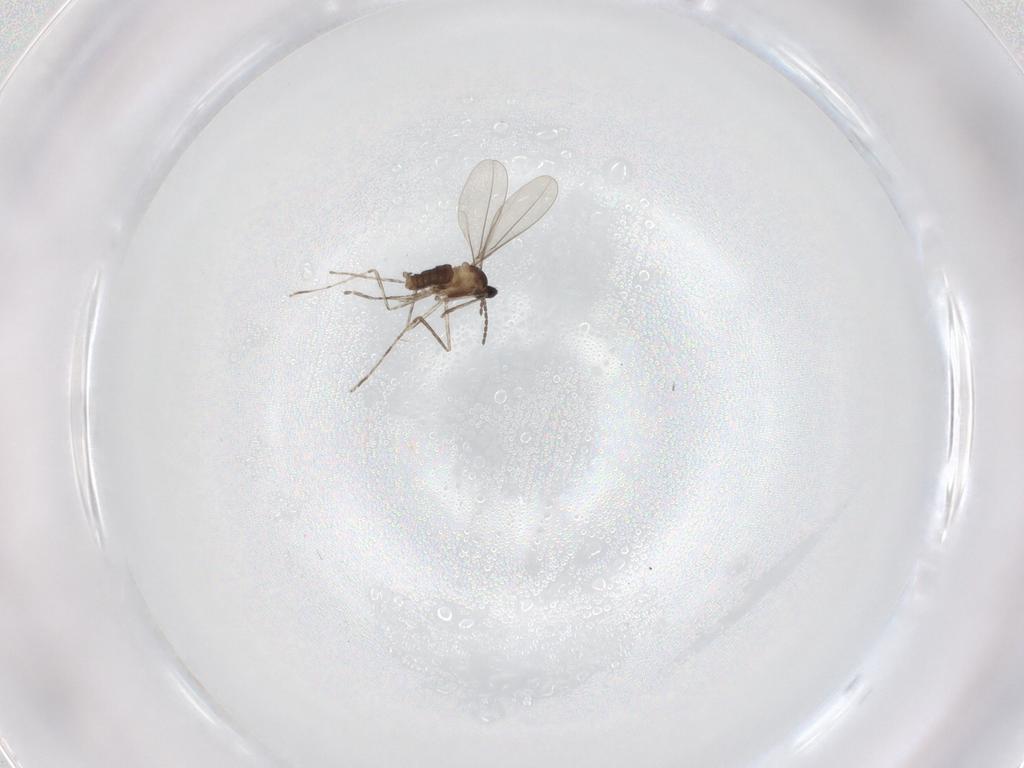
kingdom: Animalia
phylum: Arthropoda
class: Insecta
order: Diptera
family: Cecidomyiidae
